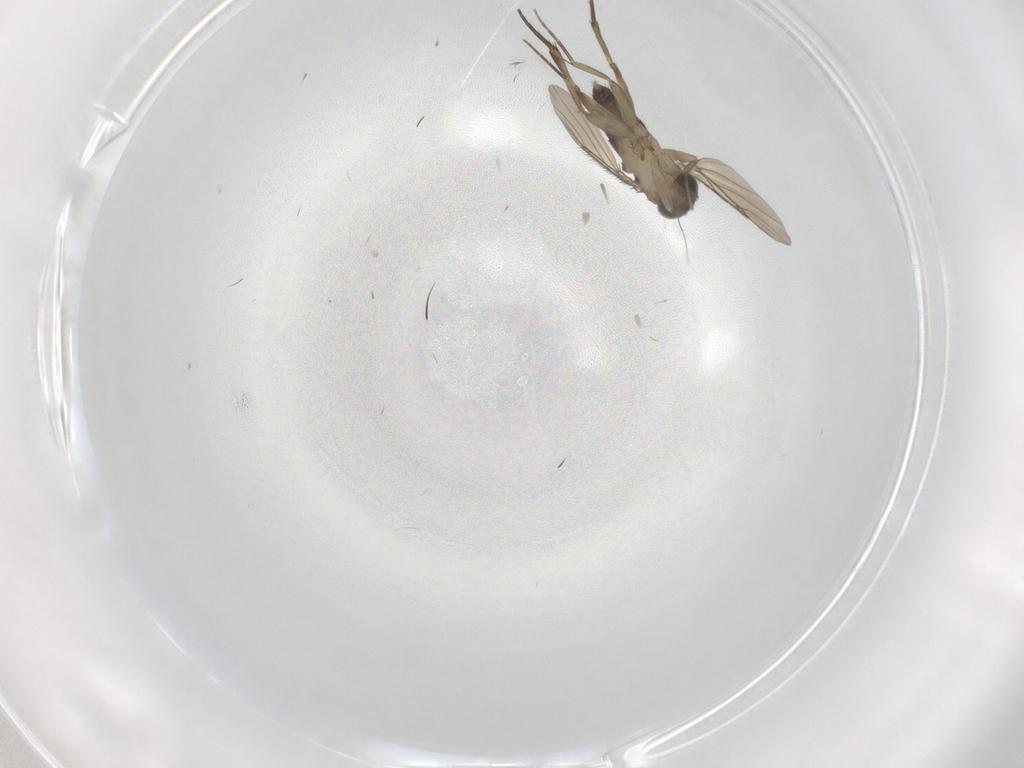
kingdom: Animalia
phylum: Arthropoda
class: Insecta
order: Diptera
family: Phoridae
